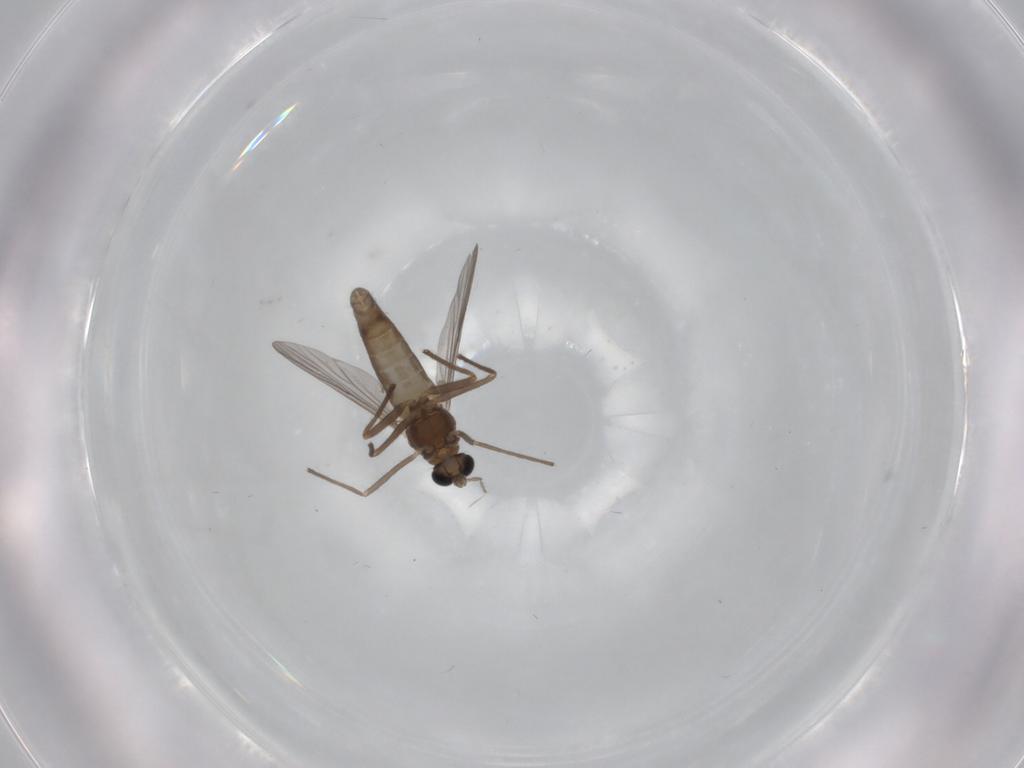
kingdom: Animalia
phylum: Arthropoda
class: Insecta
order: Diptera
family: Chironomidae
